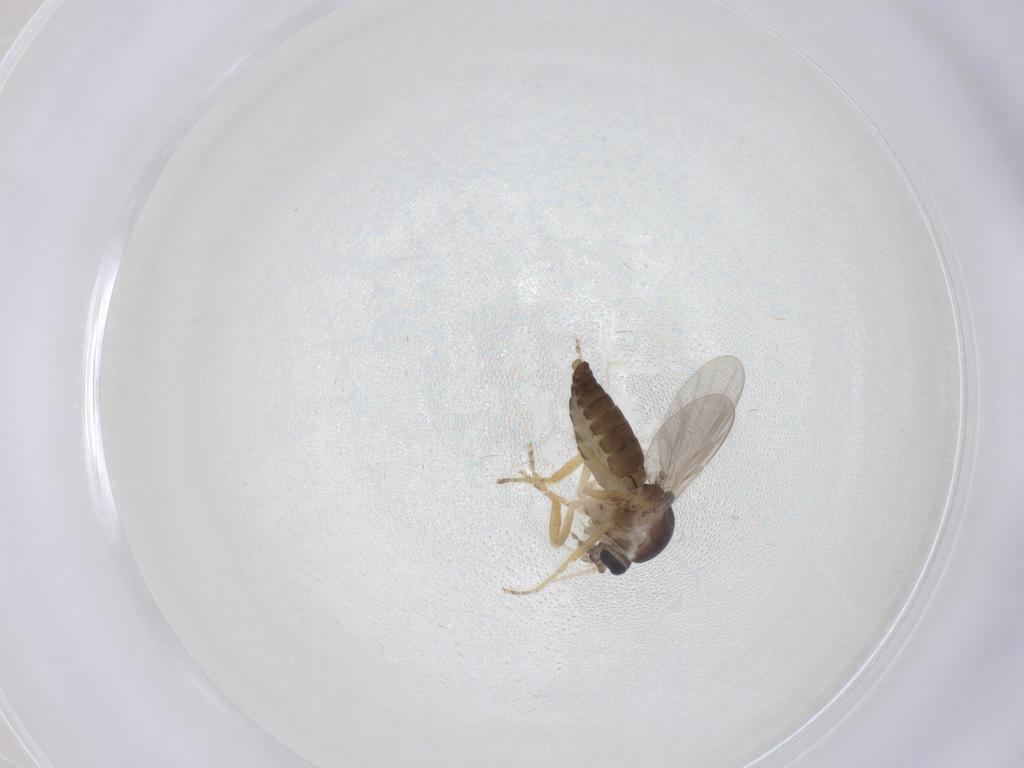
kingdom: Animalia
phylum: Arthropoda
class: Insecta
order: Diptera
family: Ceratopogonidae
